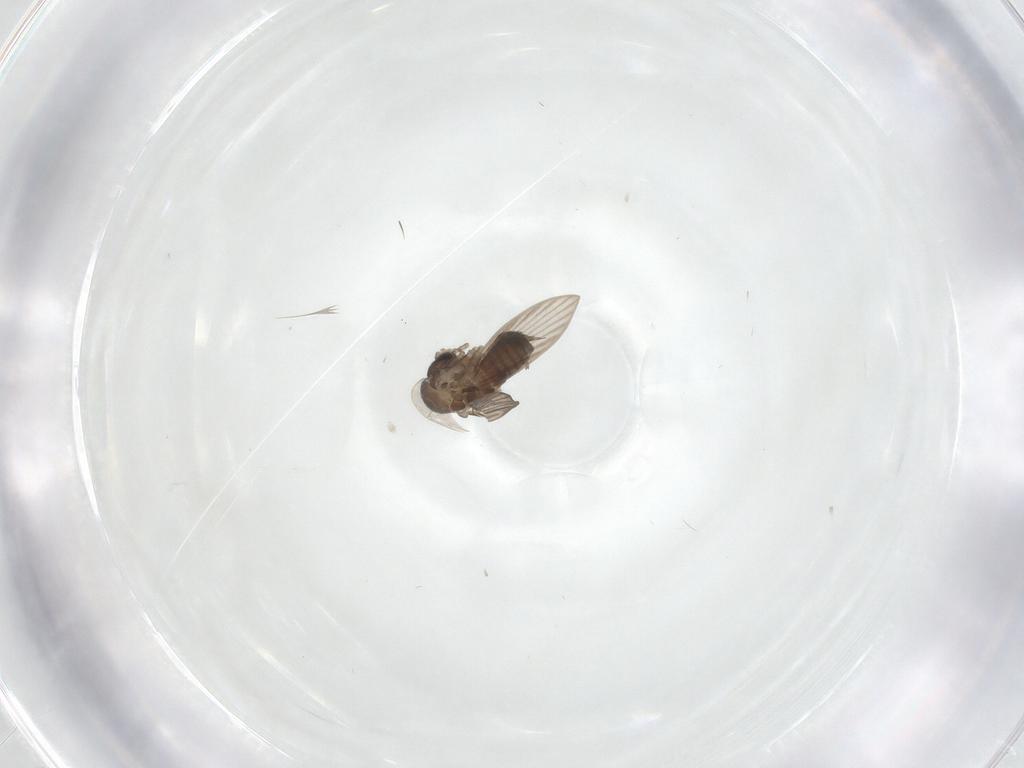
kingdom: Animalia
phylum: Arthropoda
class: Insecta
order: Diptera
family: Cecidomyiidae
